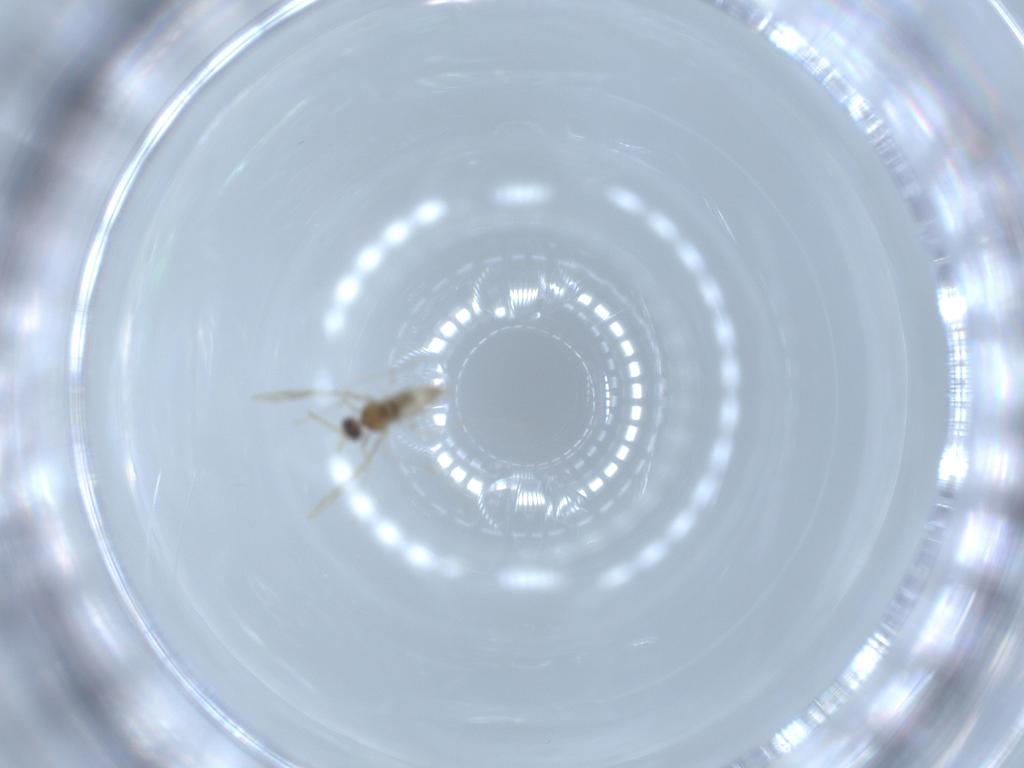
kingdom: Animalia
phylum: Arthropoda
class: Insecta
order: Diptera
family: Cecidomyiidae
